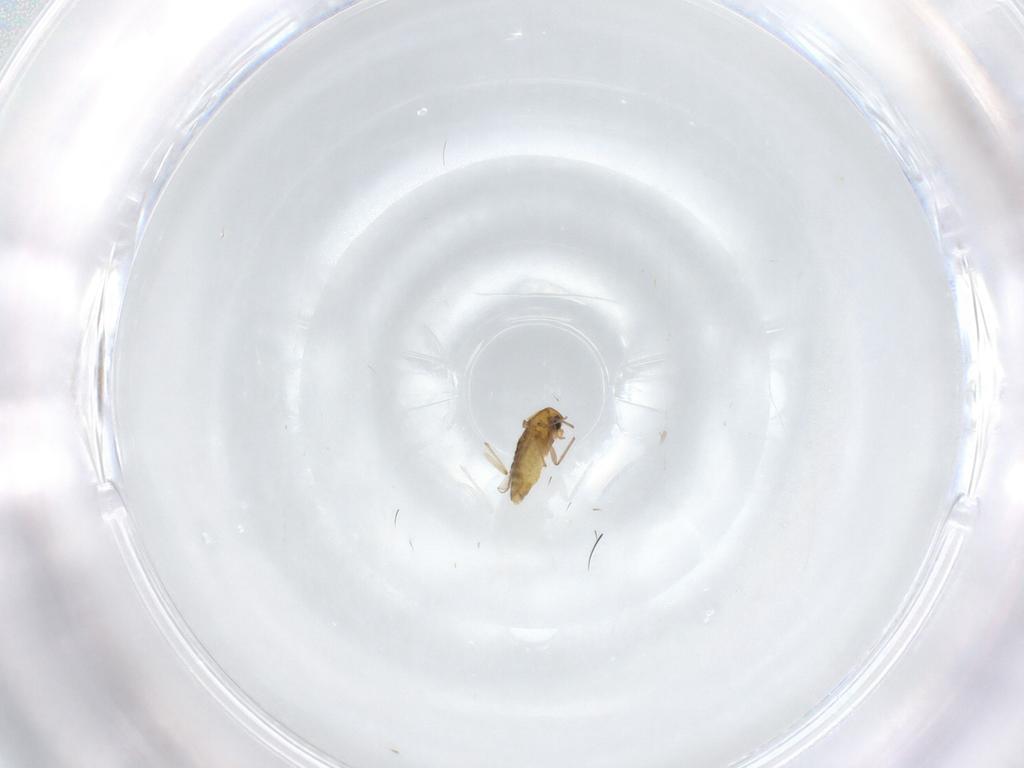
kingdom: Animalia
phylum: Arthropoda
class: Insecta
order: Diptera
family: Chironomidae
